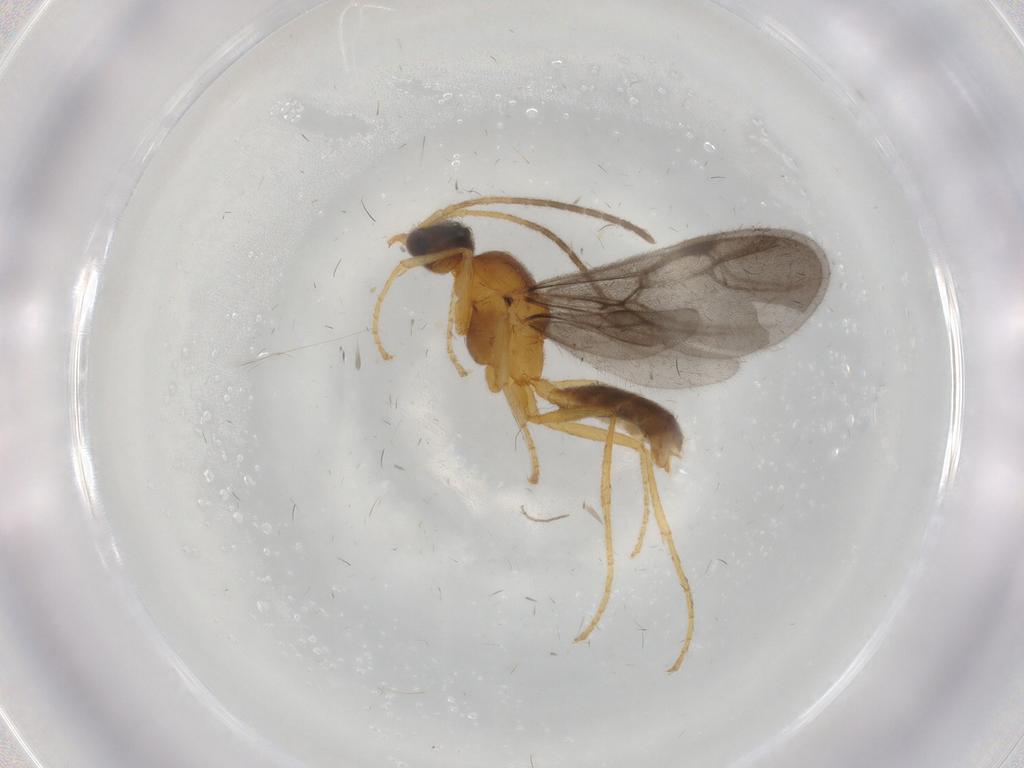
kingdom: Animalia
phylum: Arthropoda
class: Insecta
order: Hymenoptera
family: Formicidae
